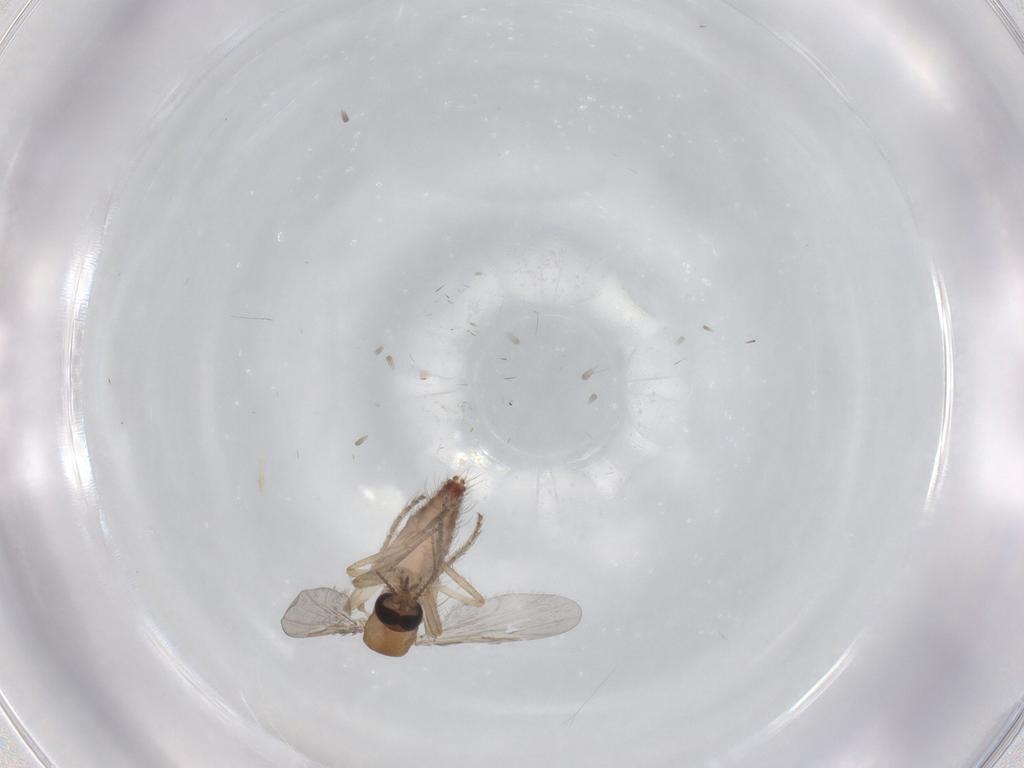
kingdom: Animalia
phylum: Arthropoda
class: Insecta
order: Diptera
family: Ceratopogonidae
